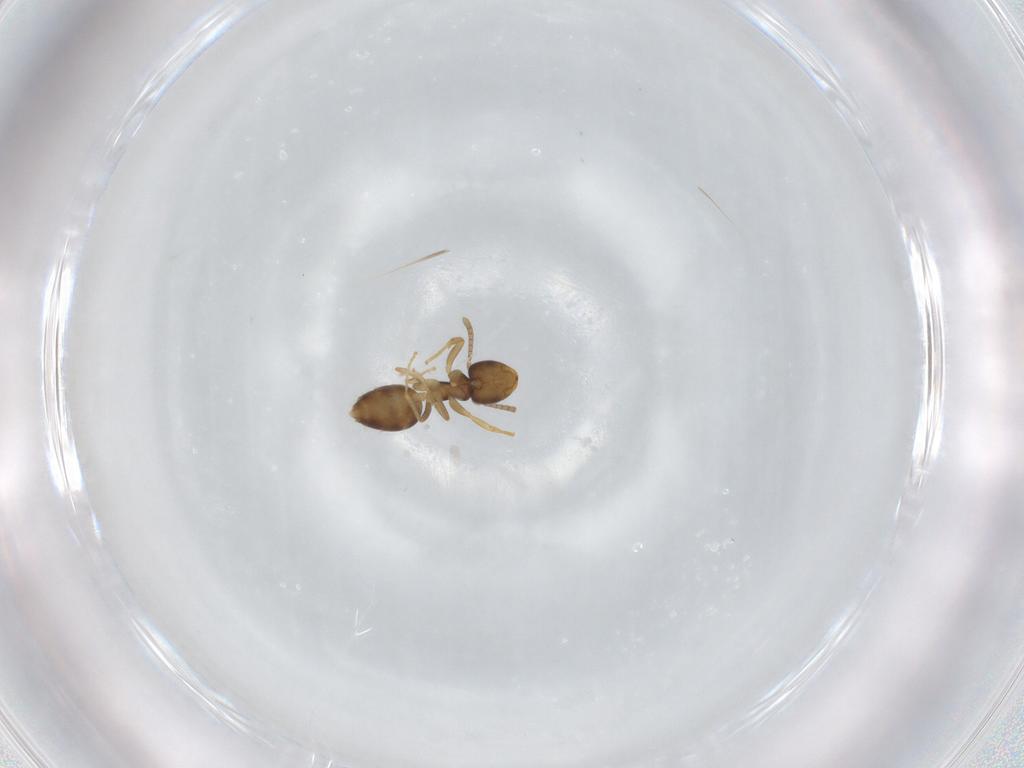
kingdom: Animalia
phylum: Arthropoda
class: Insecta
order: Hymenoptera
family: Formicidae
